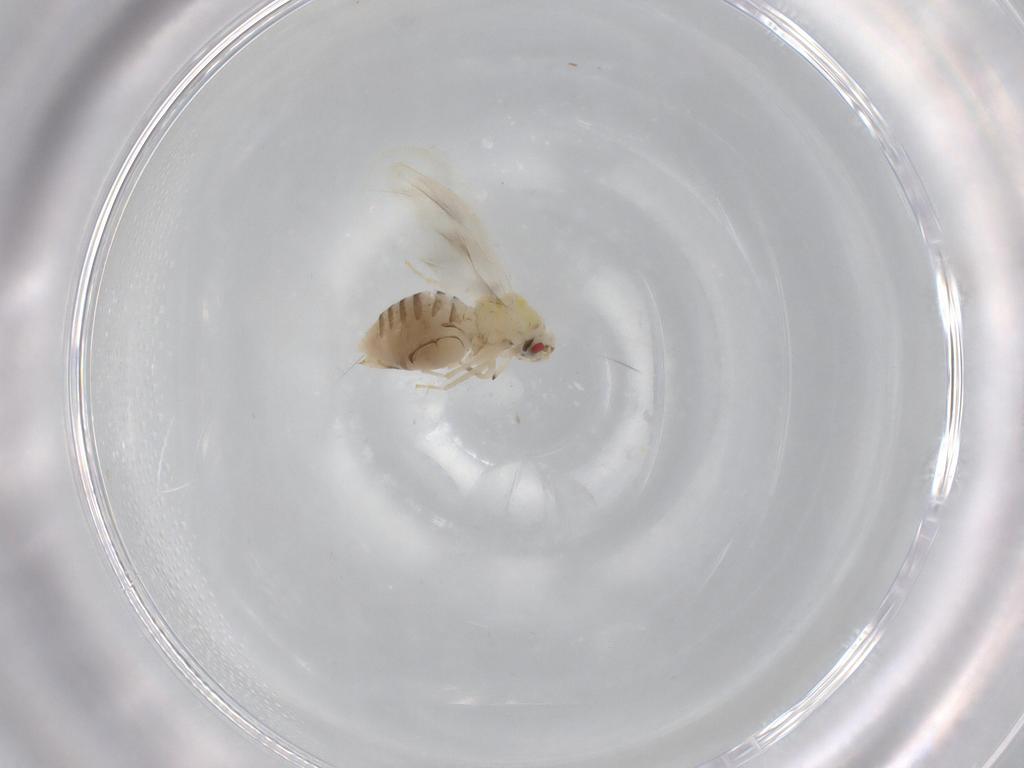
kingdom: Animalia
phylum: Arthropoda
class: Insecta
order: Hemiptera
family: Aleyrodidae
